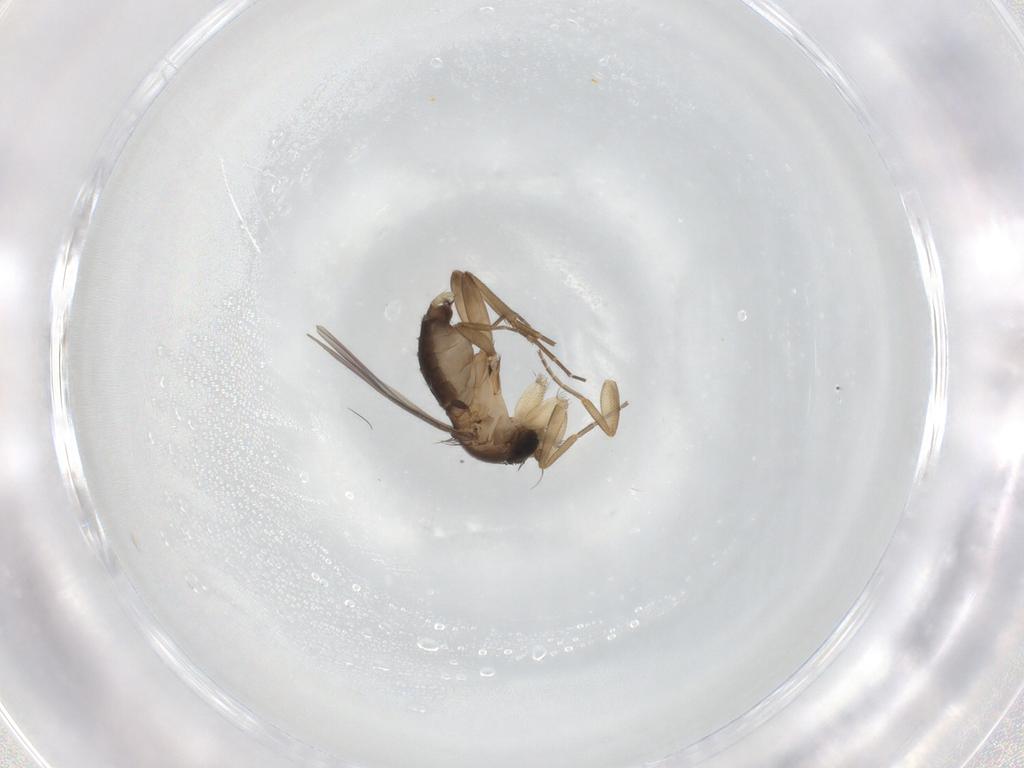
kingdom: Animalia
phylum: Arthropoda
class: Insecta
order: Diptera
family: Phoridae
